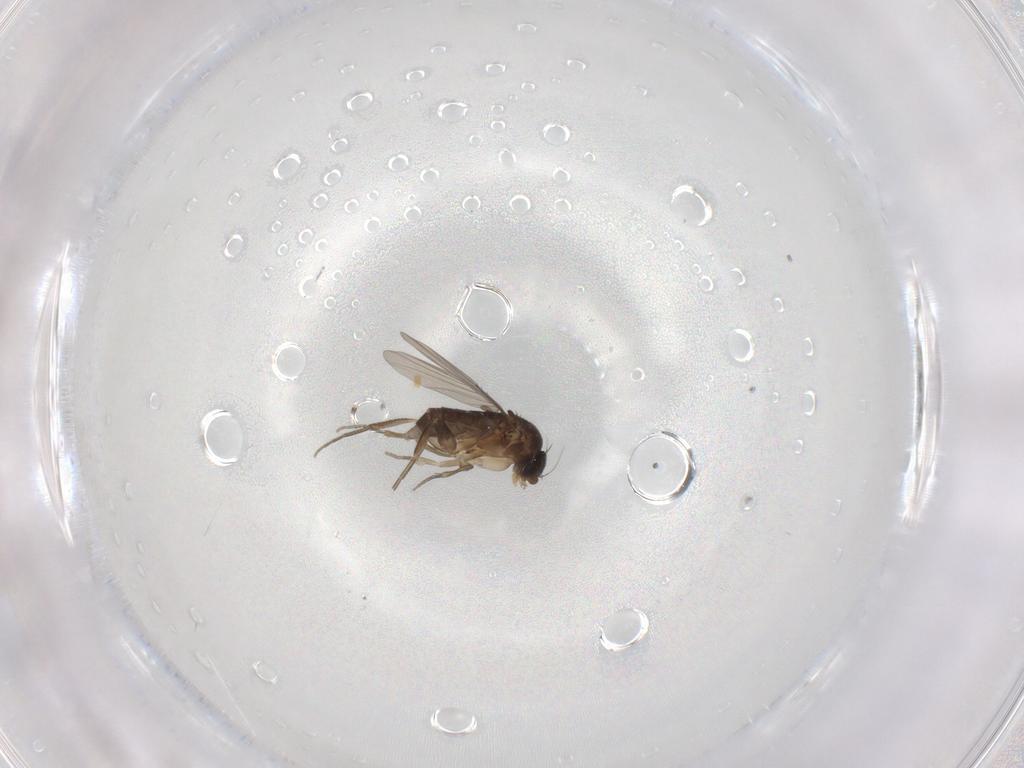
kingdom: Animalia
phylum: Arthropoda
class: Insecta
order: Diptera
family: Phoridae
